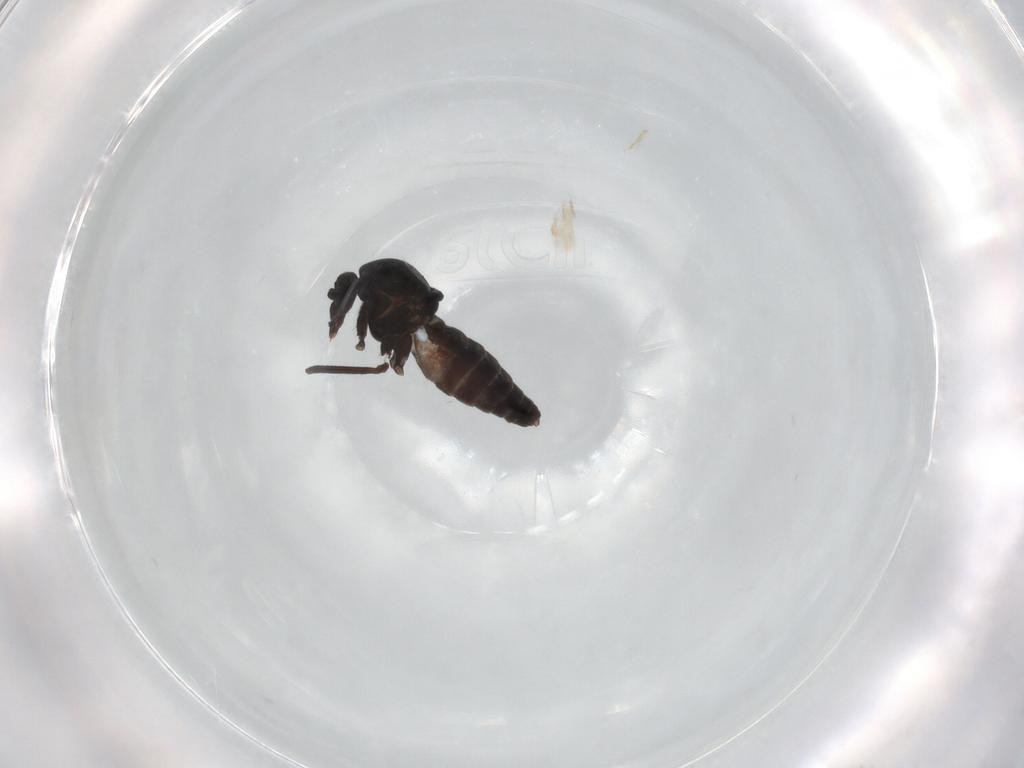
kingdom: Animalia
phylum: Arthropoda
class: Insecta
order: Diptera
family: Ceratopogonidae
